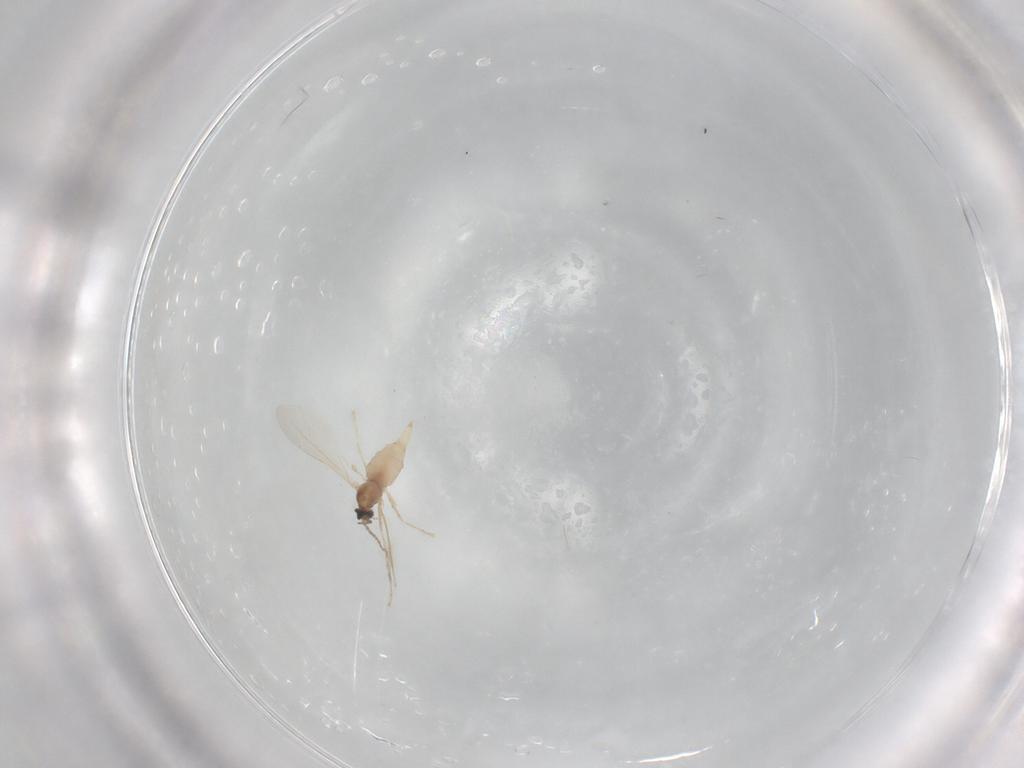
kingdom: Animalia
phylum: Arthropoda
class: Insecta
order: Diptera
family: Cecidomyiidae
